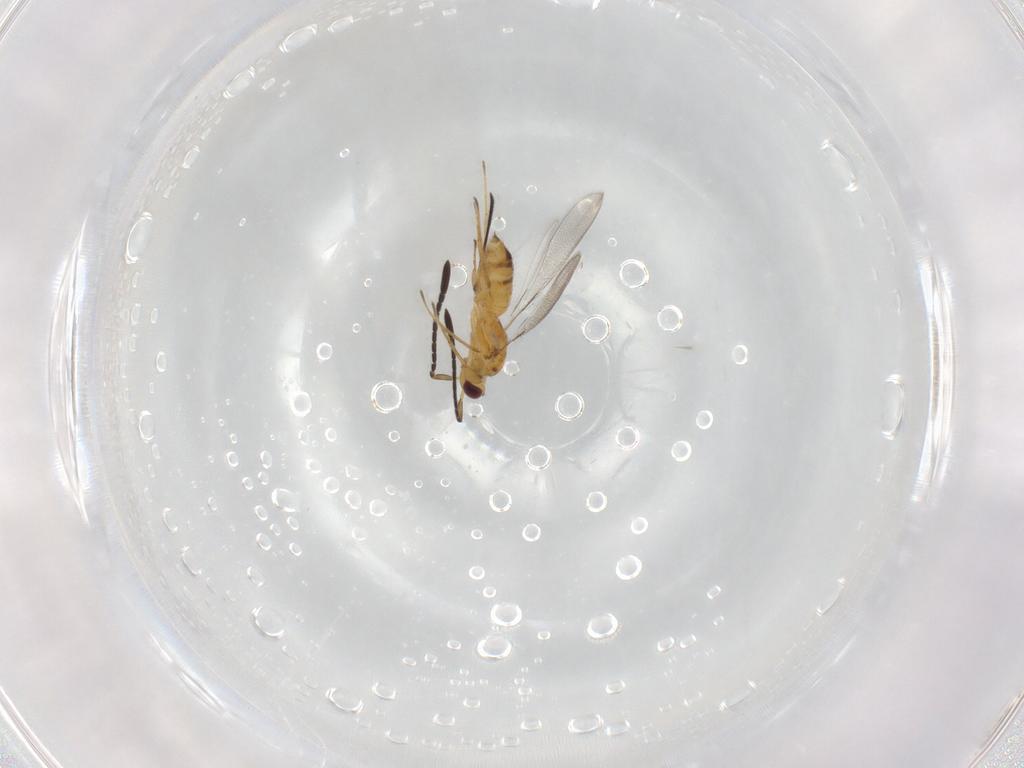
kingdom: Animalia
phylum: Arthropoda
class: Insecta
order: Hymenoptera
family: Mymaridae
